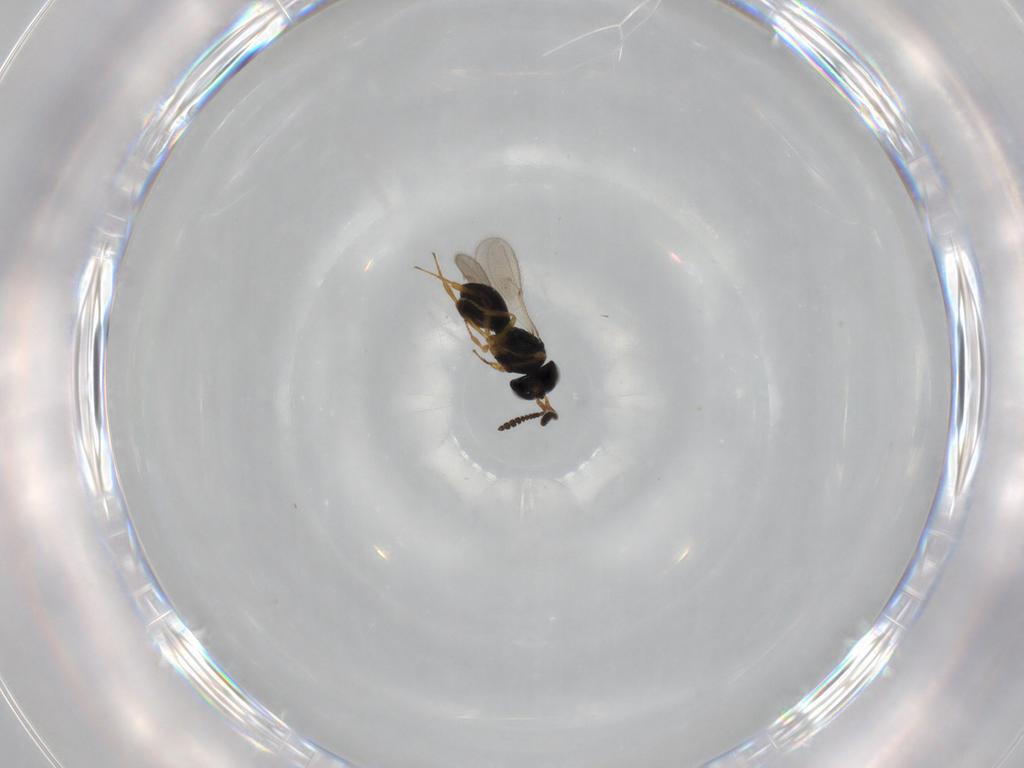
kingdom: Animalia
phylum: Arthropoda
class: Insecta
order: Hymenoptera
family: Scelionidae
